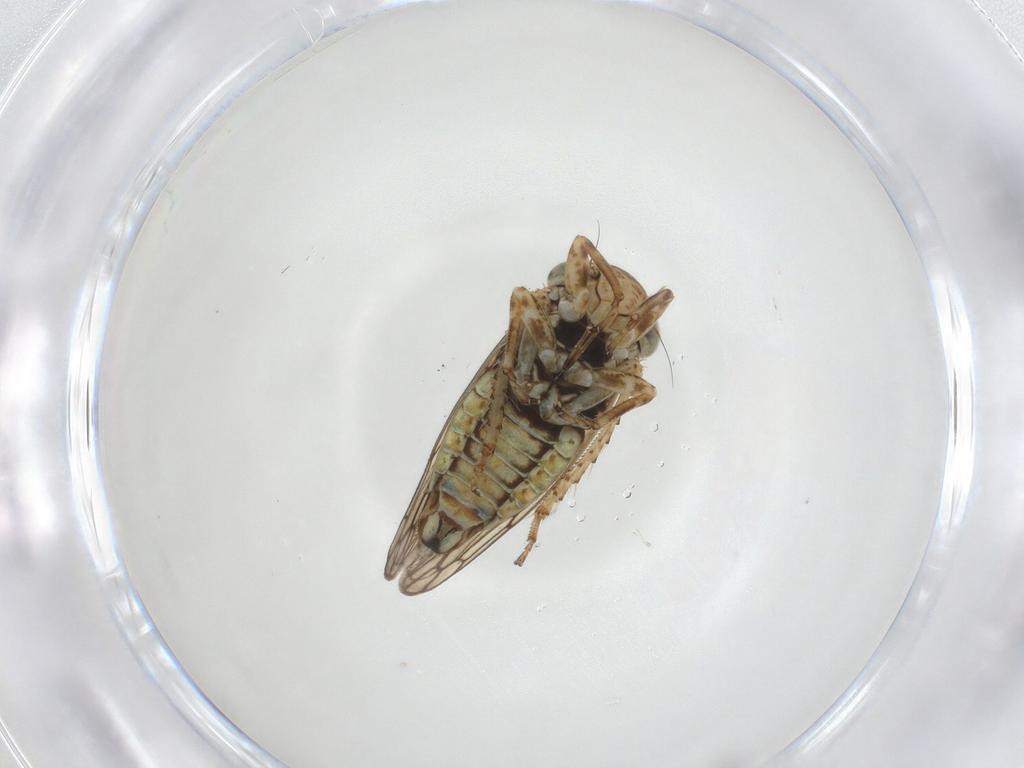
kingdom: Animalia
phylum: Arthropoda
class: Insecta
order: Hemiptera
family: Cicadellidae
